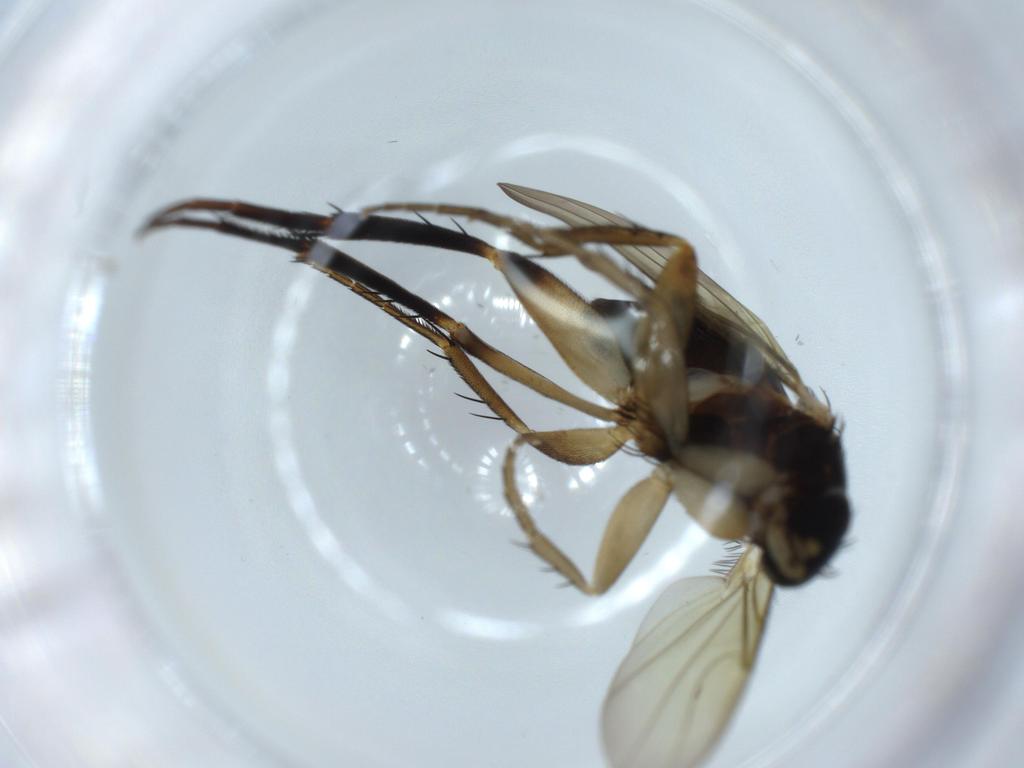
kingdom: Animalia
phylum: Arthropoda
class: Insecta
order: Diptera
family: Phoridae
